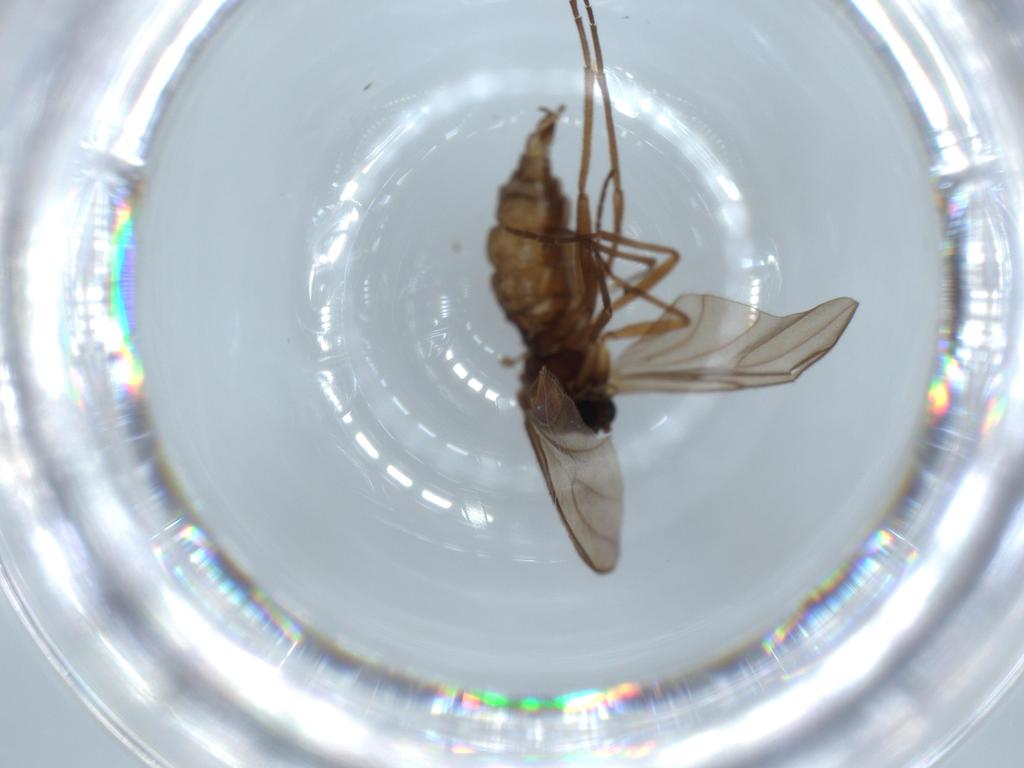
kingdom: Animalia
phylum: Arthropoda
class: Insecta
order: Diptera
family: Sciaridae
